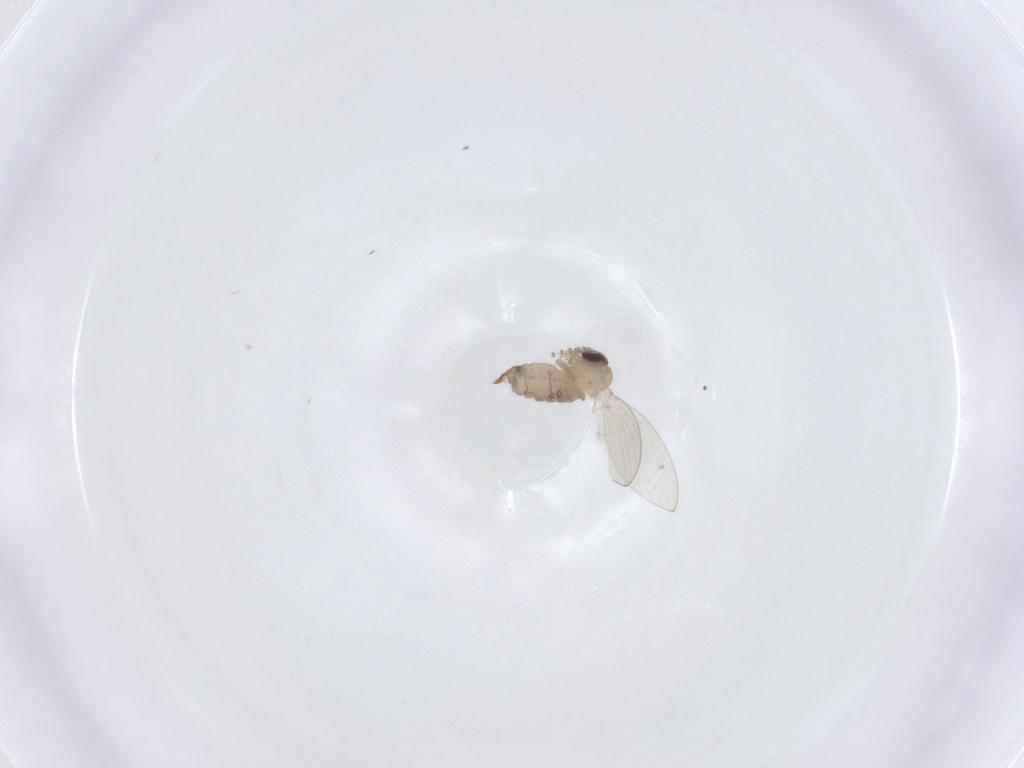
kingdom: Animalia
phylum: Arthropoda
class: Insecta
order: Diptera
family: Psychodidae
